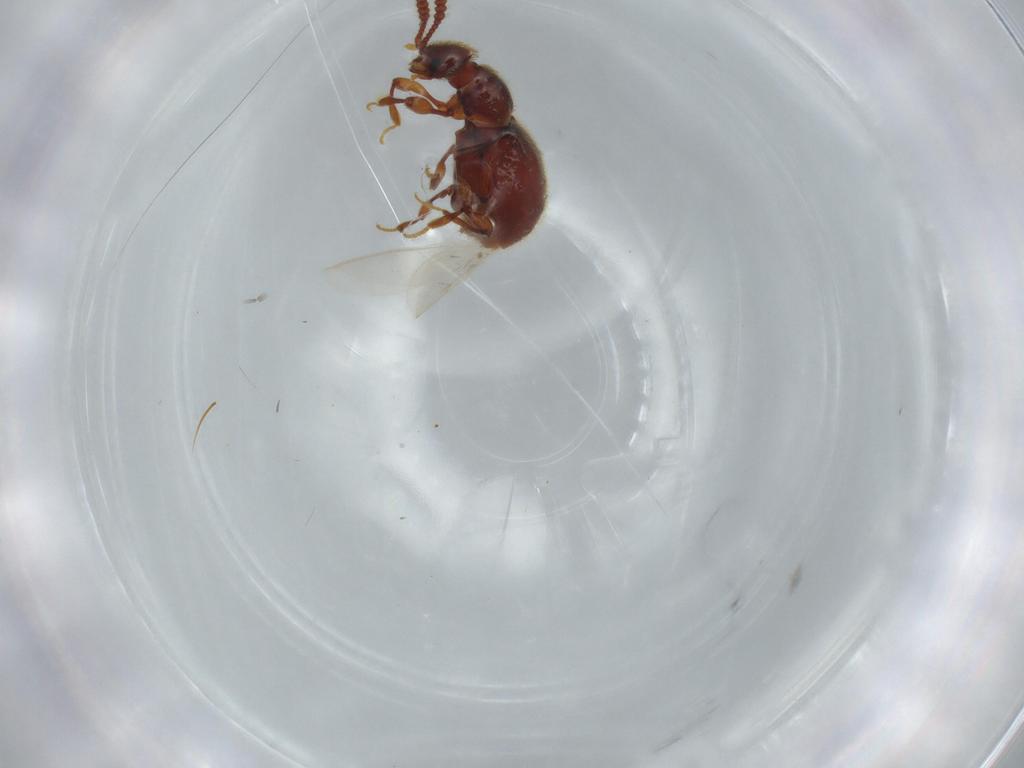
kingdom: Animalia
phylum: Arthropoda
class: Insecta
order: Coleoptera
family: Staphylinidae
